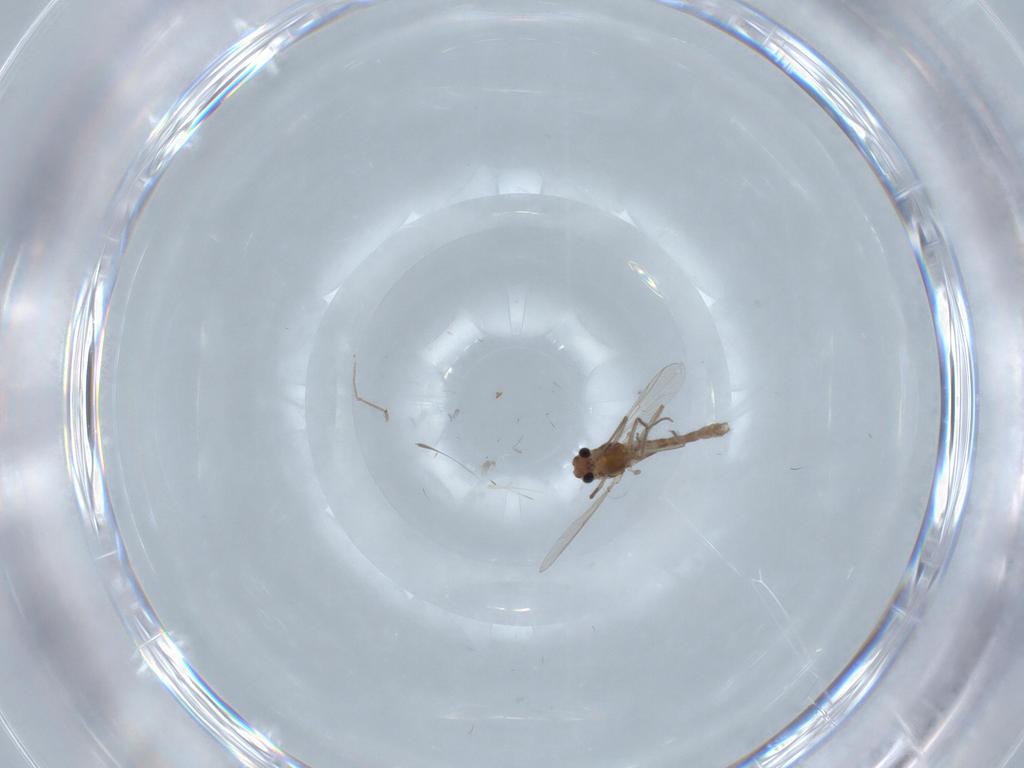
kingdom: Animalia
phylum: Arthropoda
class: Insecta
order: Diptera
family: Chironomidae
